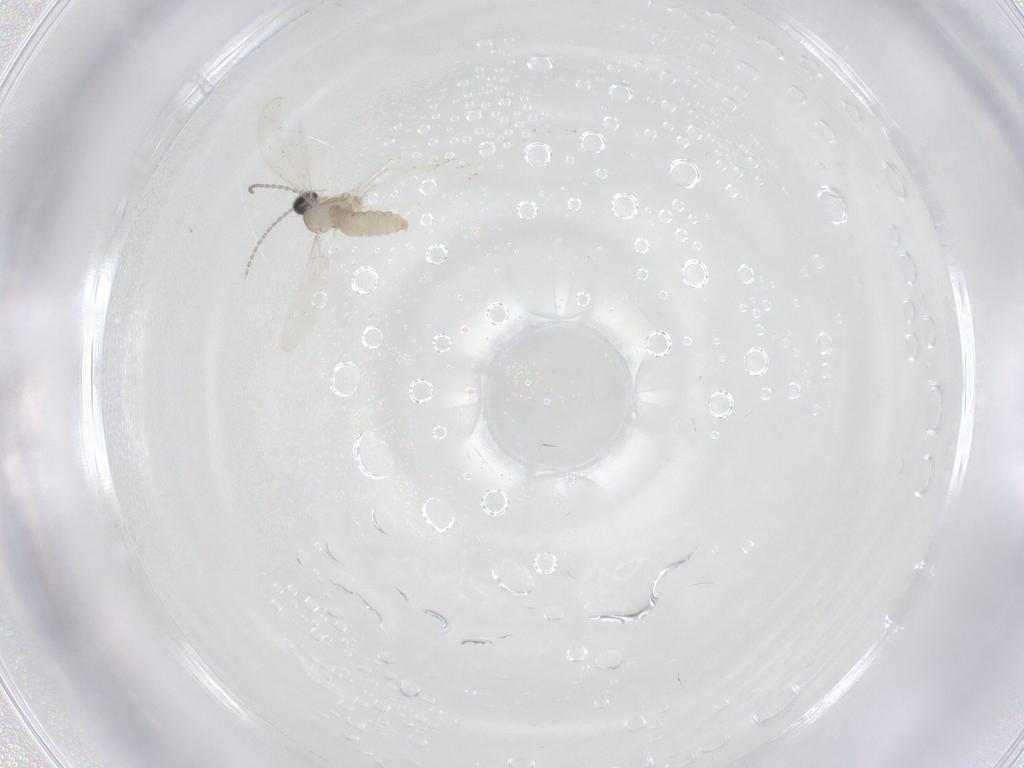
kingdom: Animalia
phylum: Arthropoda
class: Insecta
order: Diptera
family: Cecidomyiidae
